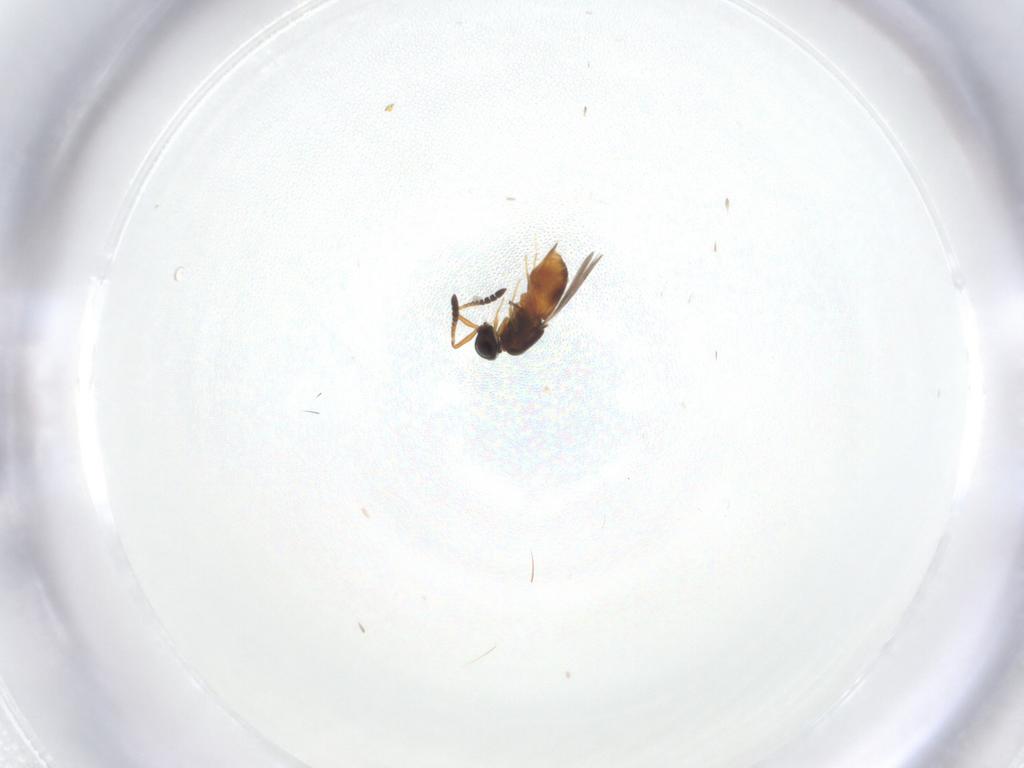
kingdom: Animalia
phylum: Arthropoda
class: Insecta
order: Hymenoptera
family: Ceraphronidae
